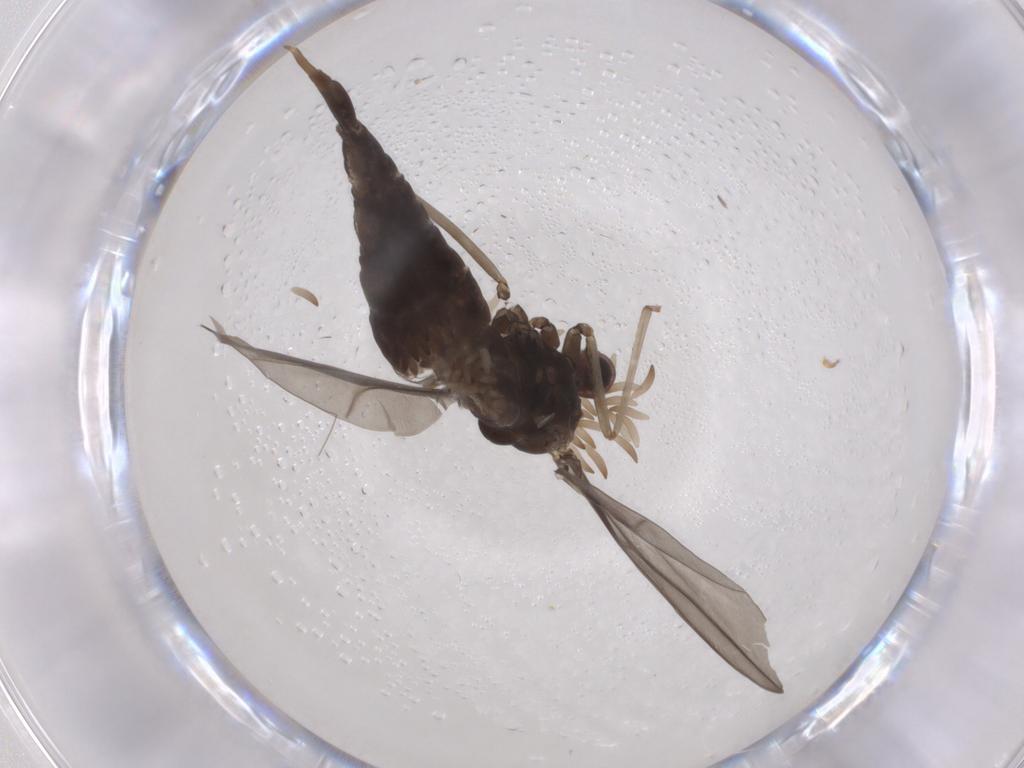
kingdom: Animalia
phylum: Arthropoda
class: Insecta
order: Diptera
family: Cecidomyiidae
